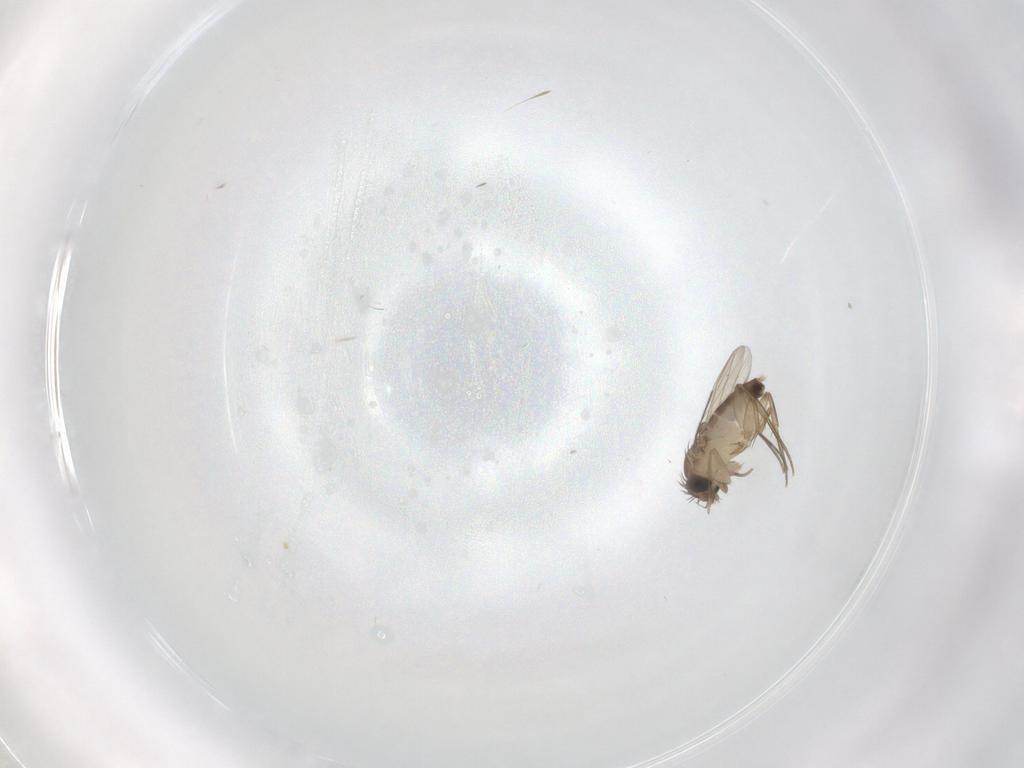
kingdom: Animalia
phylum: Arthropoda
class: Insecta
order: Diptera
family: Phoridae
